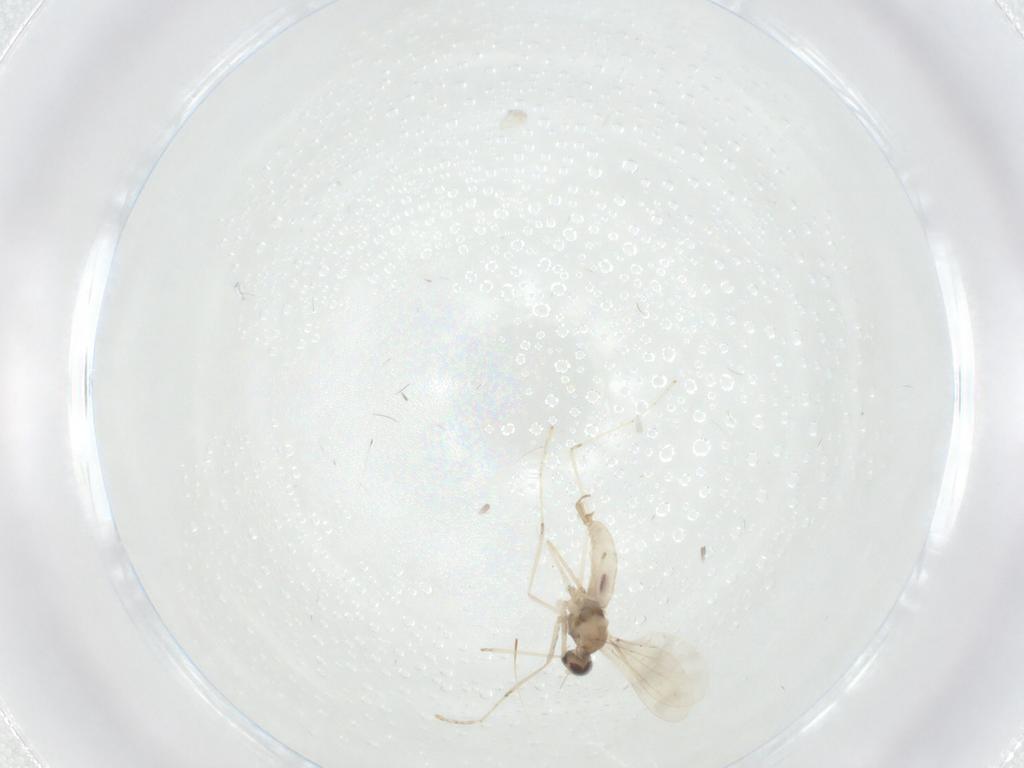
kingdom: Animalia
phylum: Arthropoda
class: Insecta
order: Diptera
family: Cecidomyiidae
